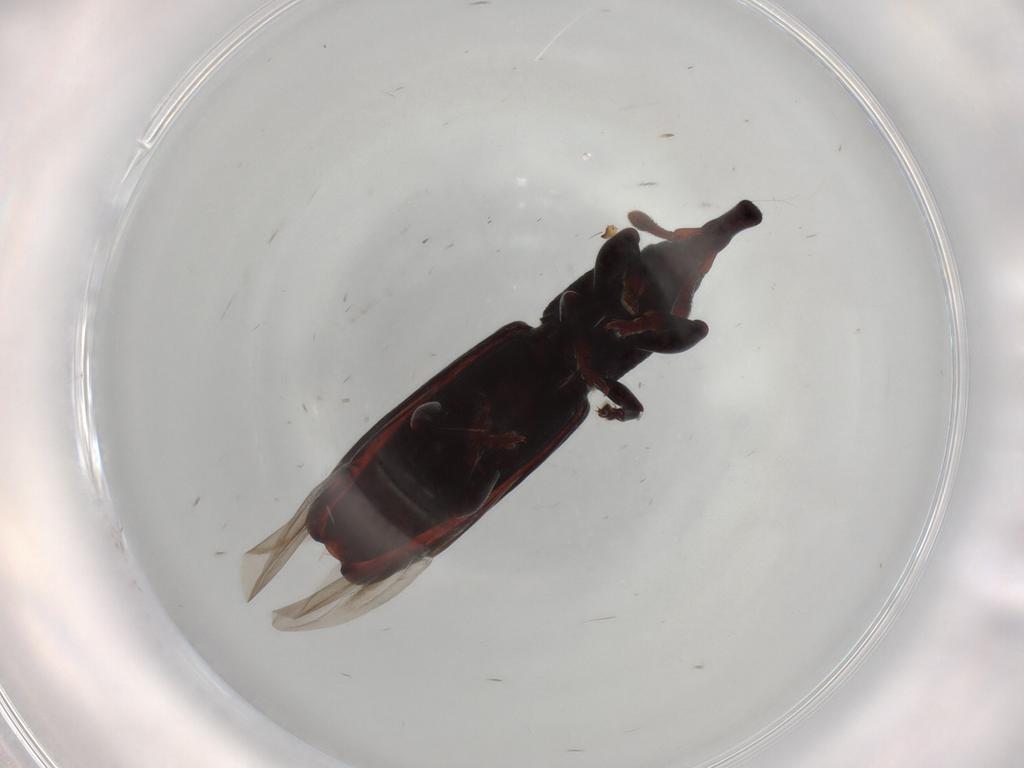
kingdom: Animalia
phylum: Arthropoda
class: Insecta
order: Coleoptera
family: Curculionidae
